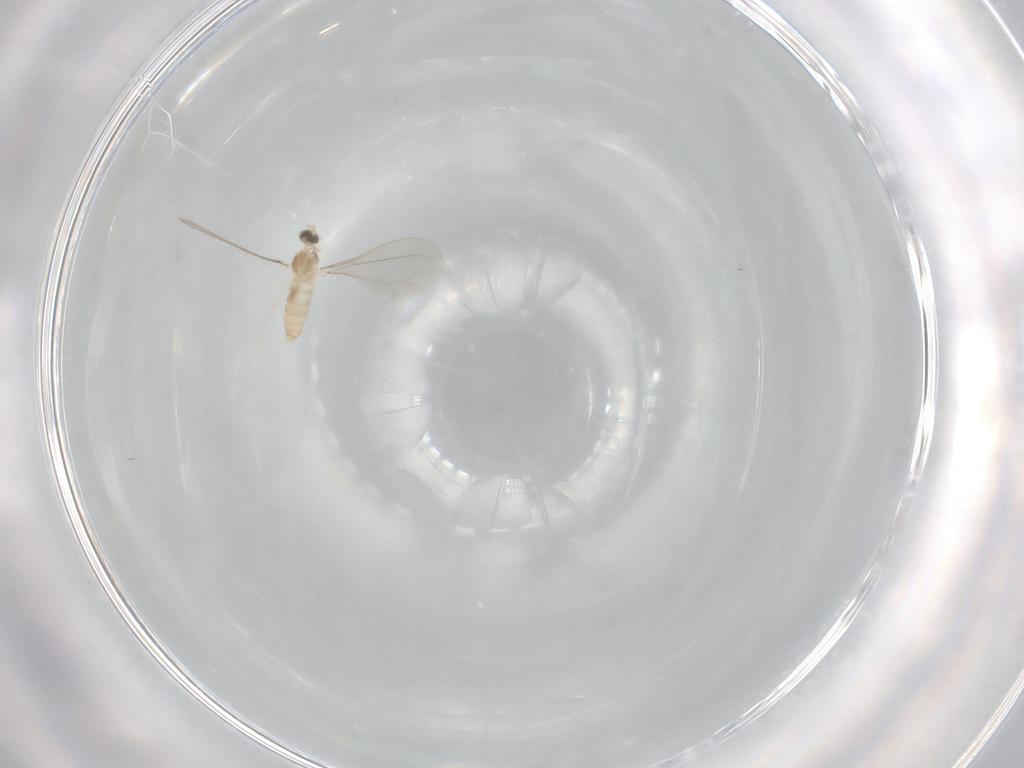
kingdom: Animalia
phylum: Arthropoda
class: Insecta
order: Diptera
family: Cecidomyiidae
